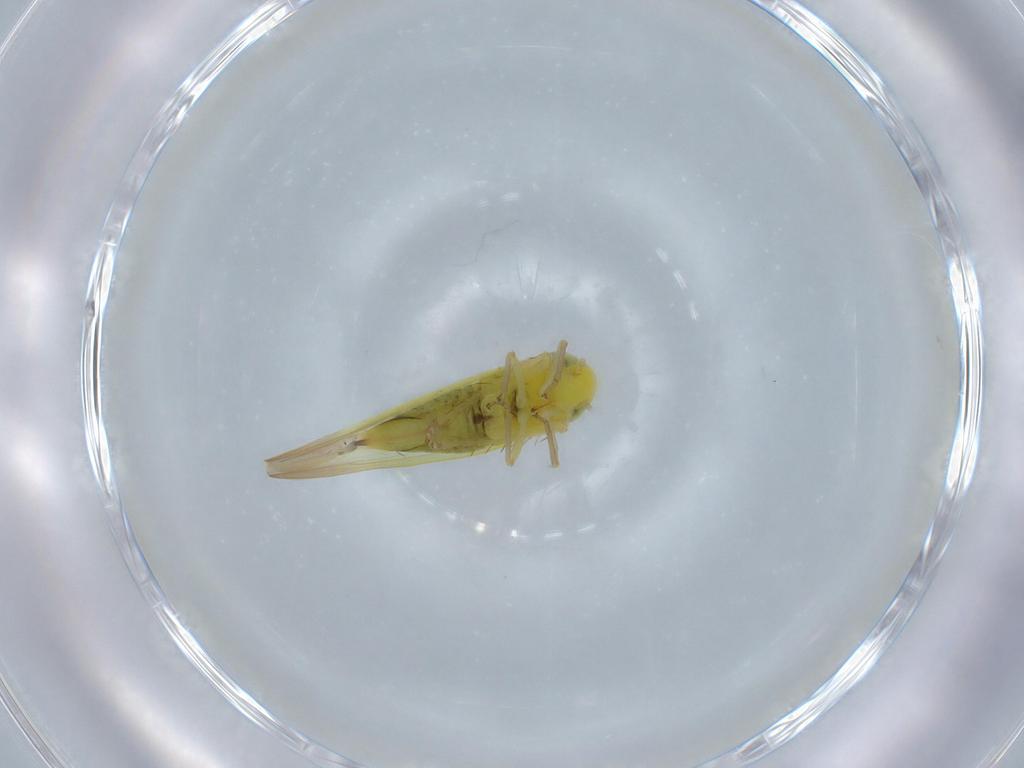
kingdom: Animalia
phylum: Arthropoda
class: Insecta
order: Hemiptera
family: Cicadellidae
